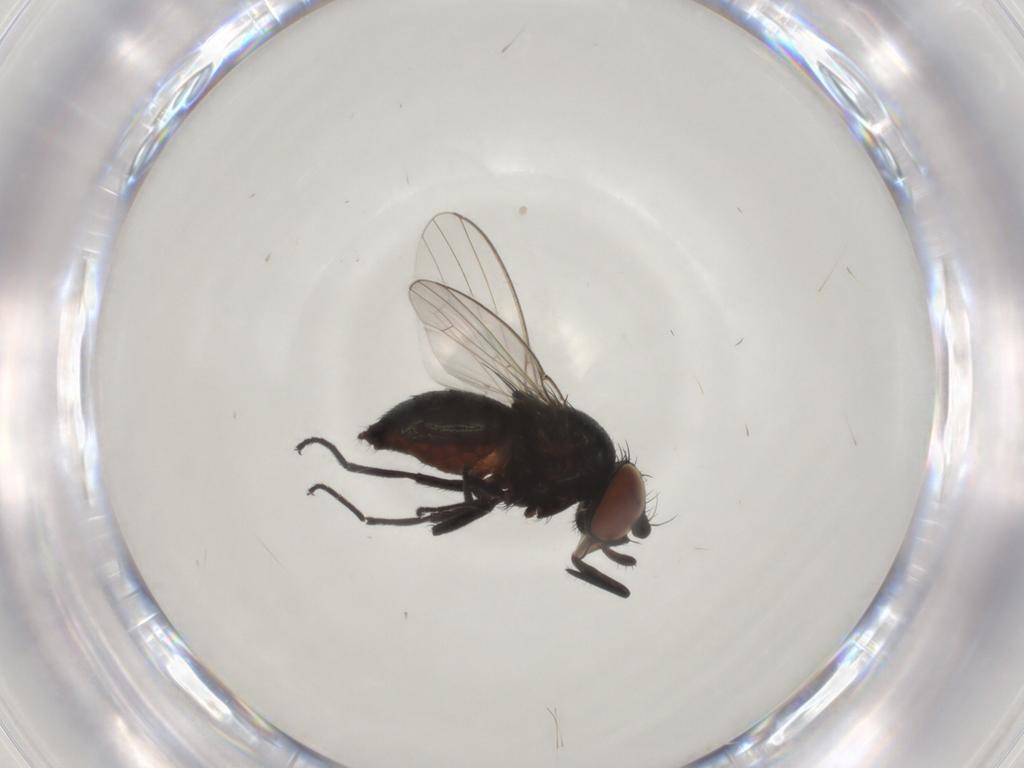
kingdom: Animalia
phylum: Arthropoda
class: Insecta
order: Diptera
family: Milichiidae
